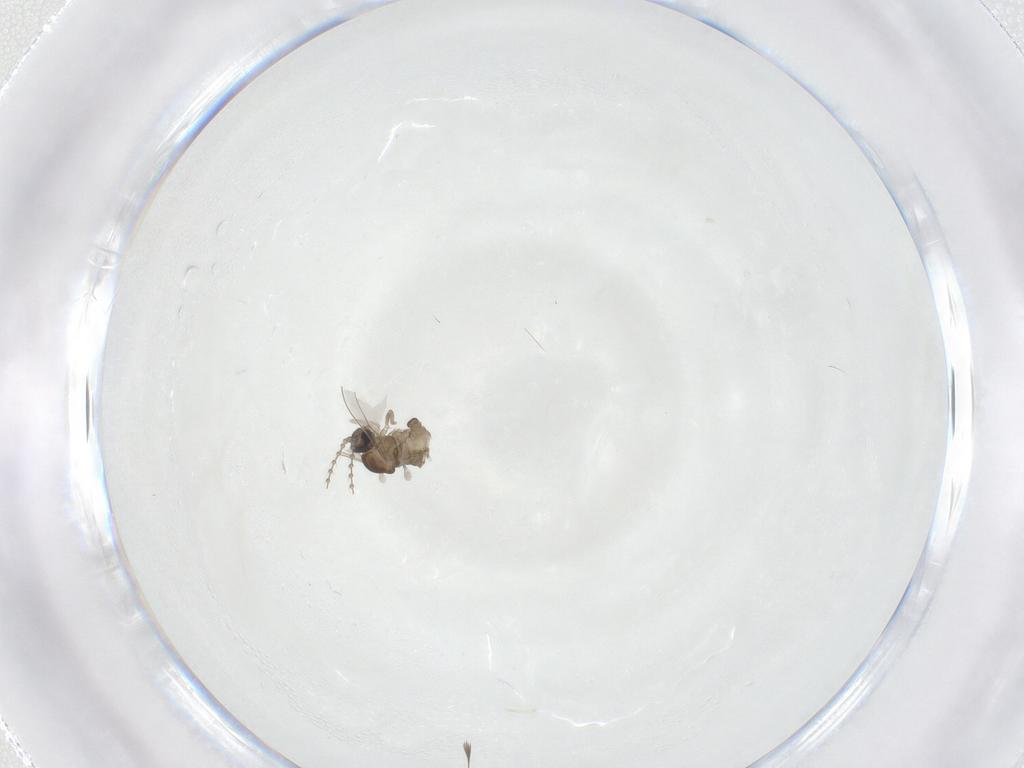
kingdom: Animalia
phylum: Arthropoda
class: Insecta
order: Diptera
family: Chironomidae
